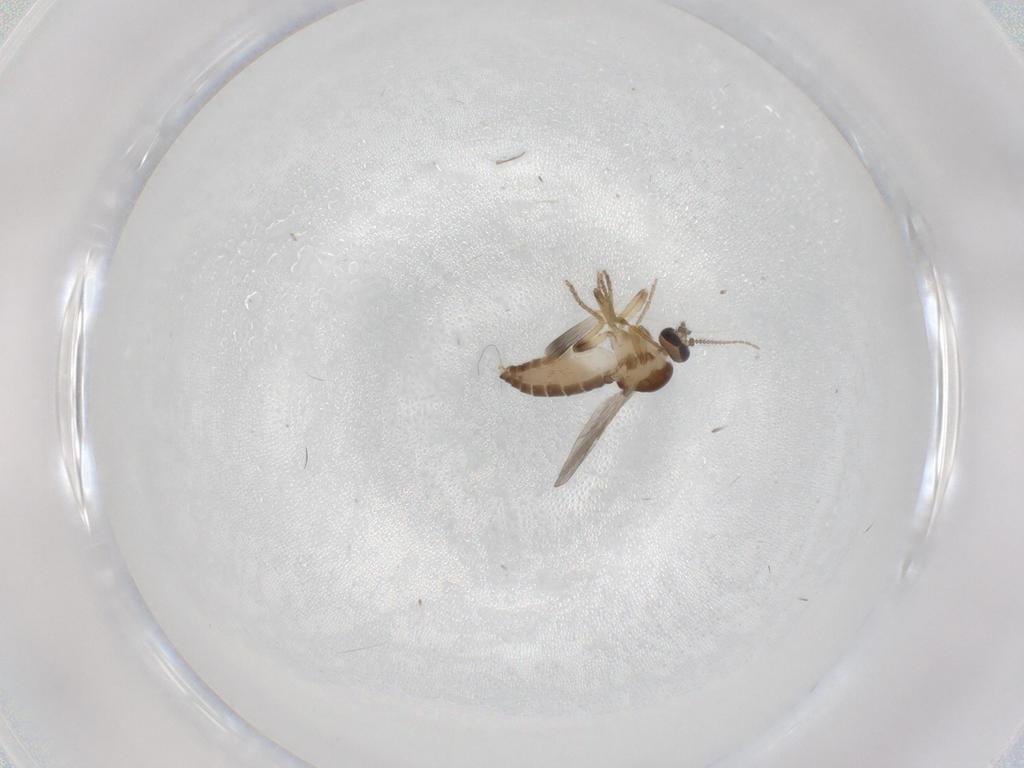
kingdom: Animalia
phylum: Arthropoda
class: Insecta
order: Diptera
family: Ceratopogonidae
